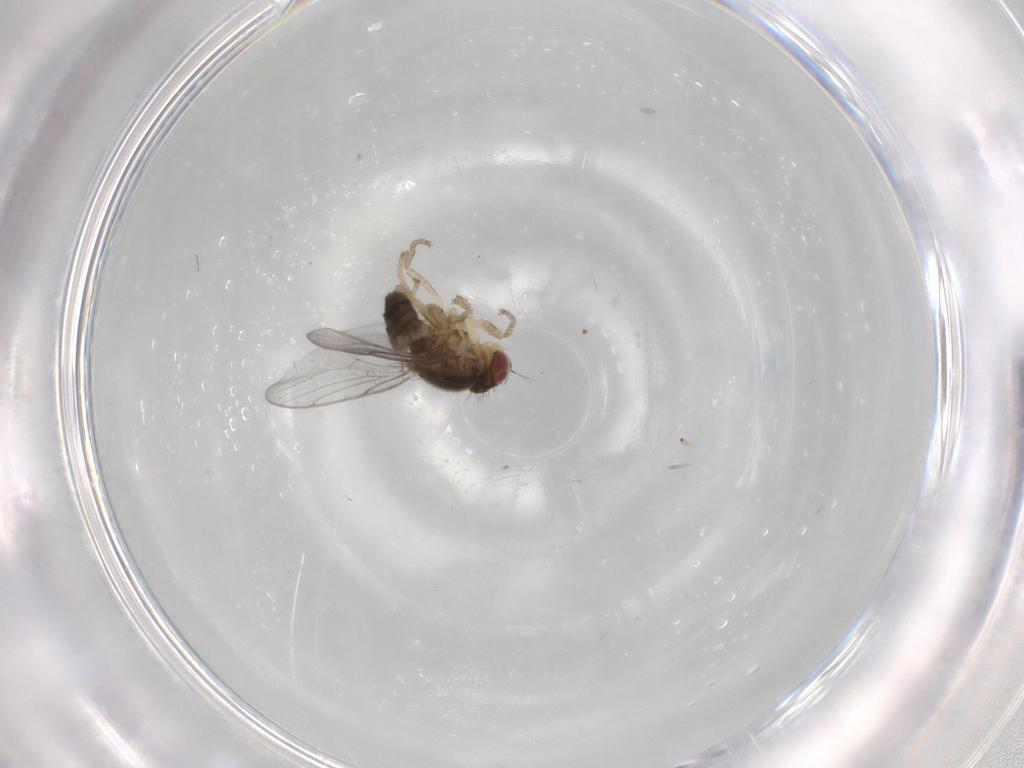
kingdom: Animalia
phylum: Arthropoda
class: Insecta
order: Diptera
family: Chloropidae
